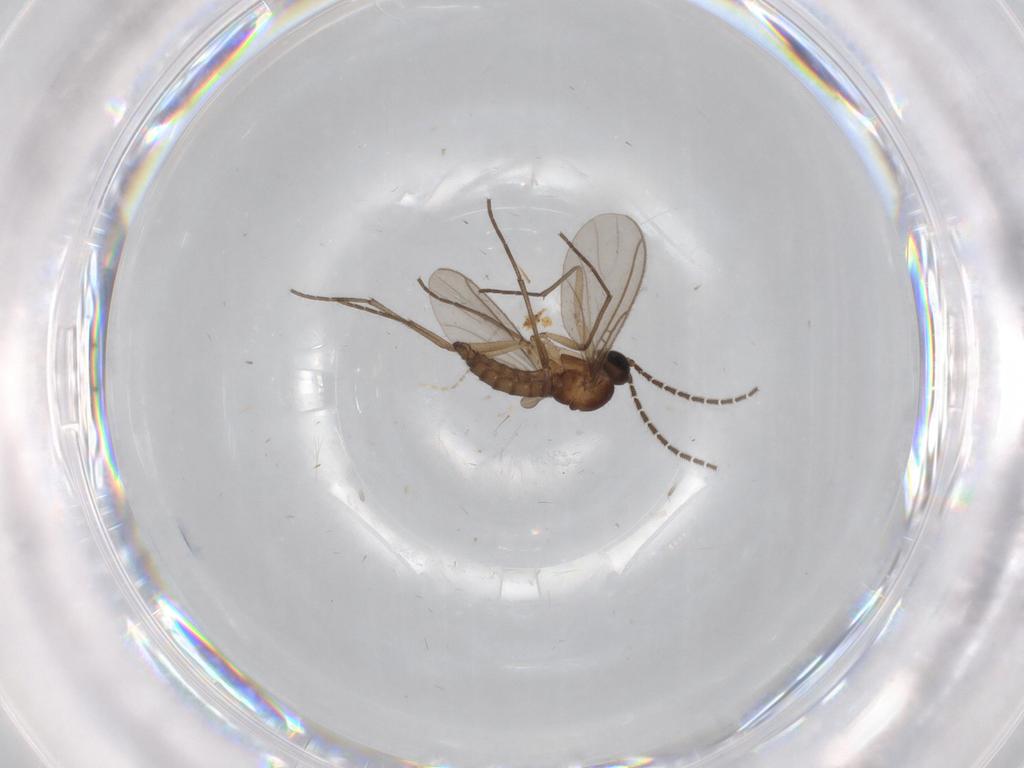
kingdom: Animalia
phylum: Arthropoda
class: Insecta
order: Diptera
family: Sciaridae
